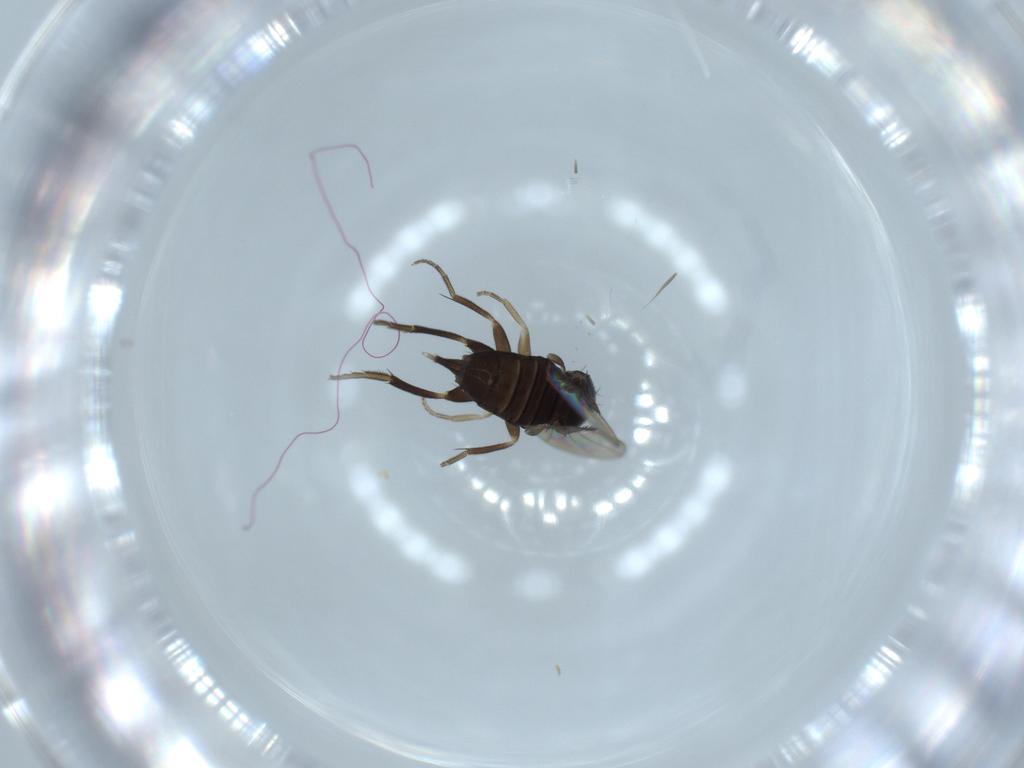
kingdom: Animalia
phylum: Arthropoda
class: Insecta
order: Diptera
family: Phoridae
